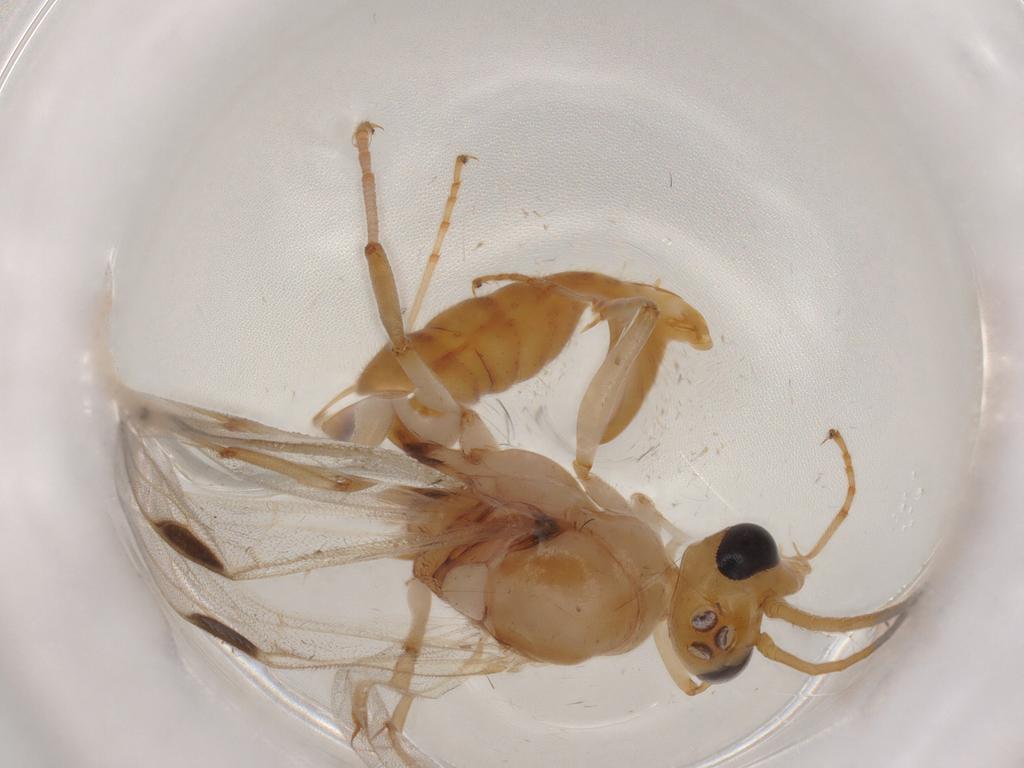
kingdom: Animalia
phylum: Arthropoda
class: Insecta
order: Hymenoptera
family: Formicidae
